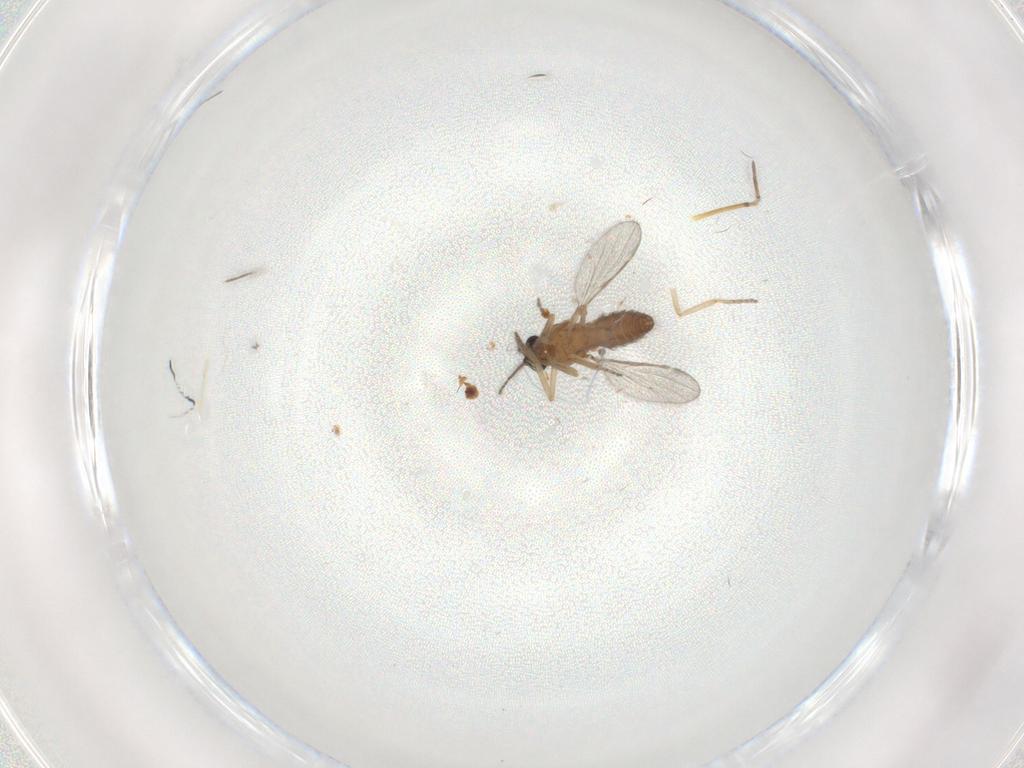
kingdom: Animalia
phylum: Arthropoda
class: Insecta
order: Diptera
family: Ceratopogonidae
